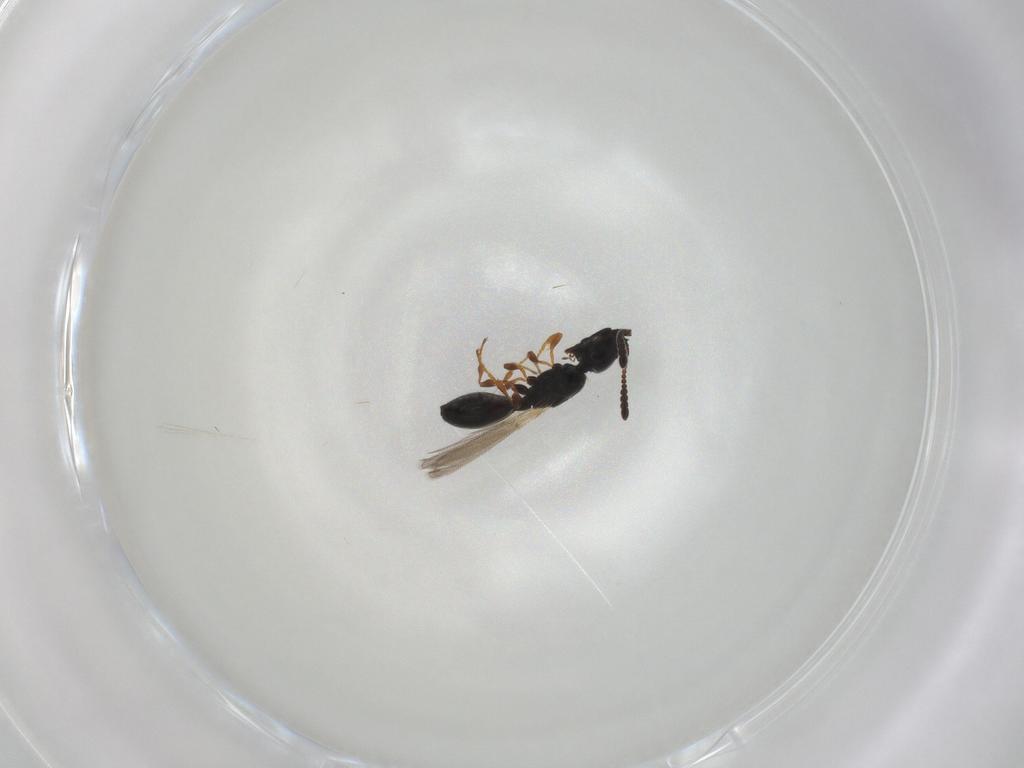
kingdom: Animalia
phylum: Arthropoda
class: Insecta
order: Hymenoptera
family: Diapriidae
